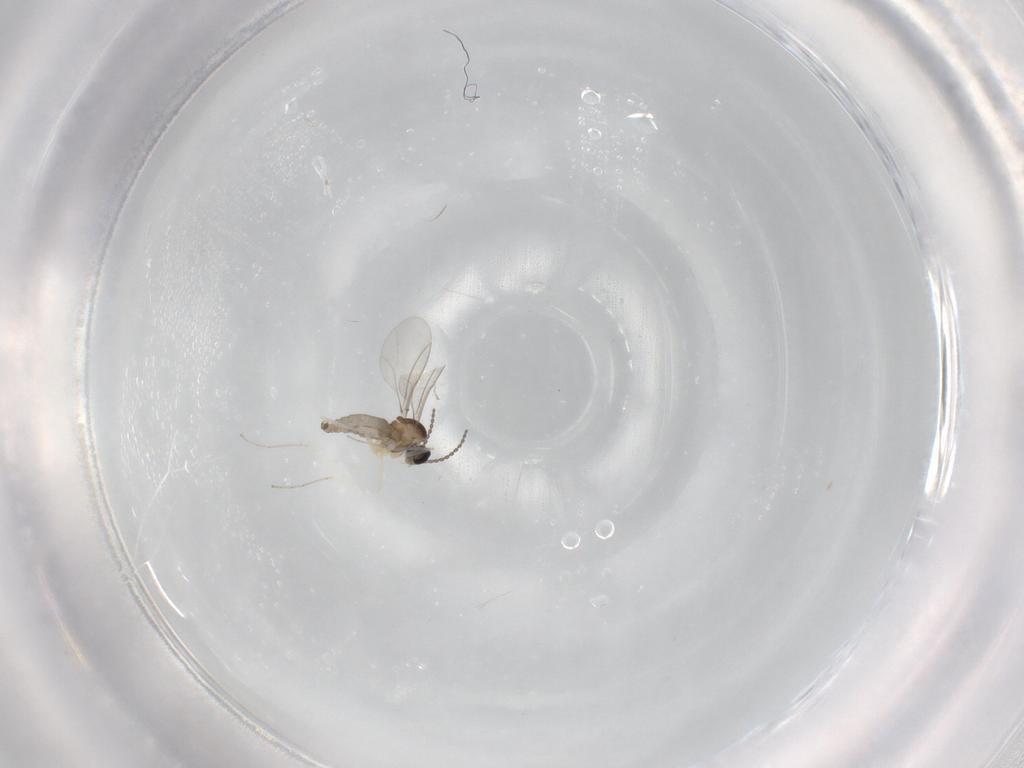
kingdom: Animalia
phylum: Arthropoda
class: Insecta
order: Diptera
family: Cecidomyiidae
